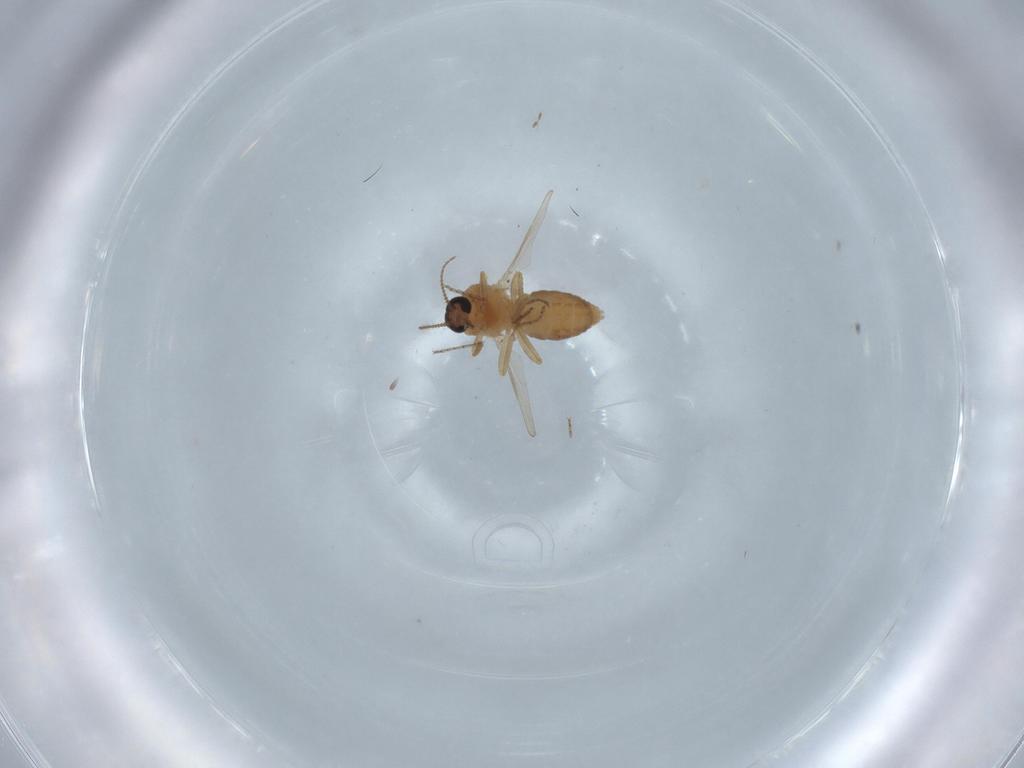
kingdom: Animalia
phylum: Arthropoda
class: Insecta
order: Diptera
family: Ceratopogonidae
